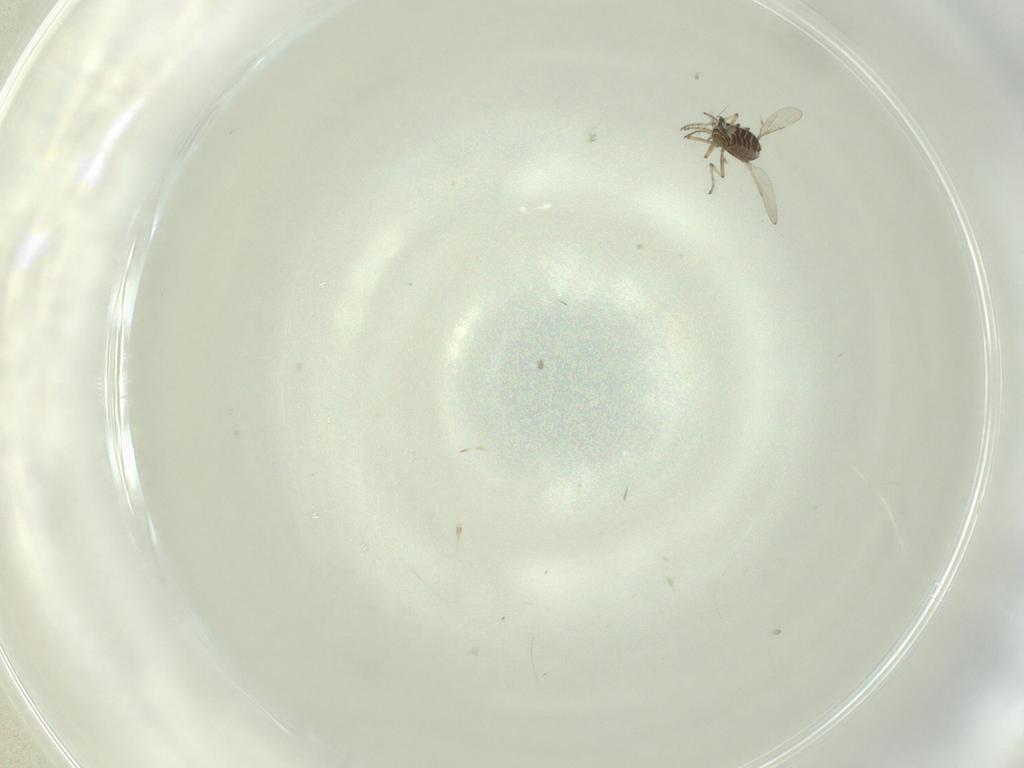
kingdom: Animalia
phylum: Arthropoda
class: Insecta
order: Diptera
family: Ceratopogonidae
